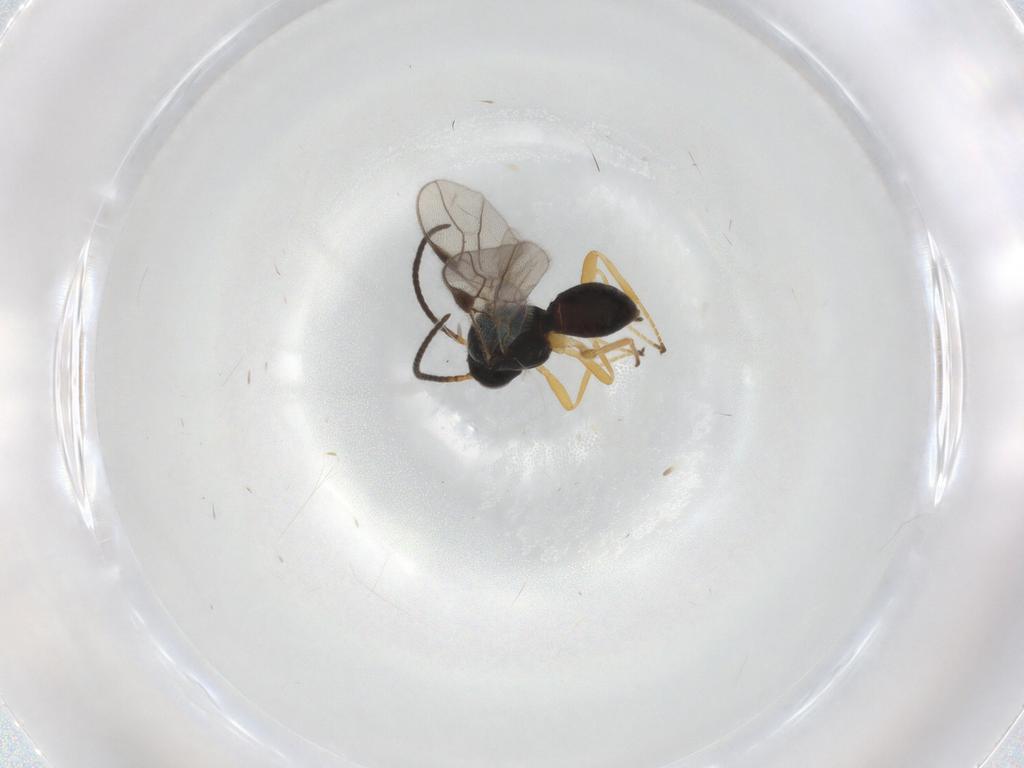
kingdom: Animalia
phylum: Arthropoda
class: Insecta
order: Hymenoptera
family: Braconidae
